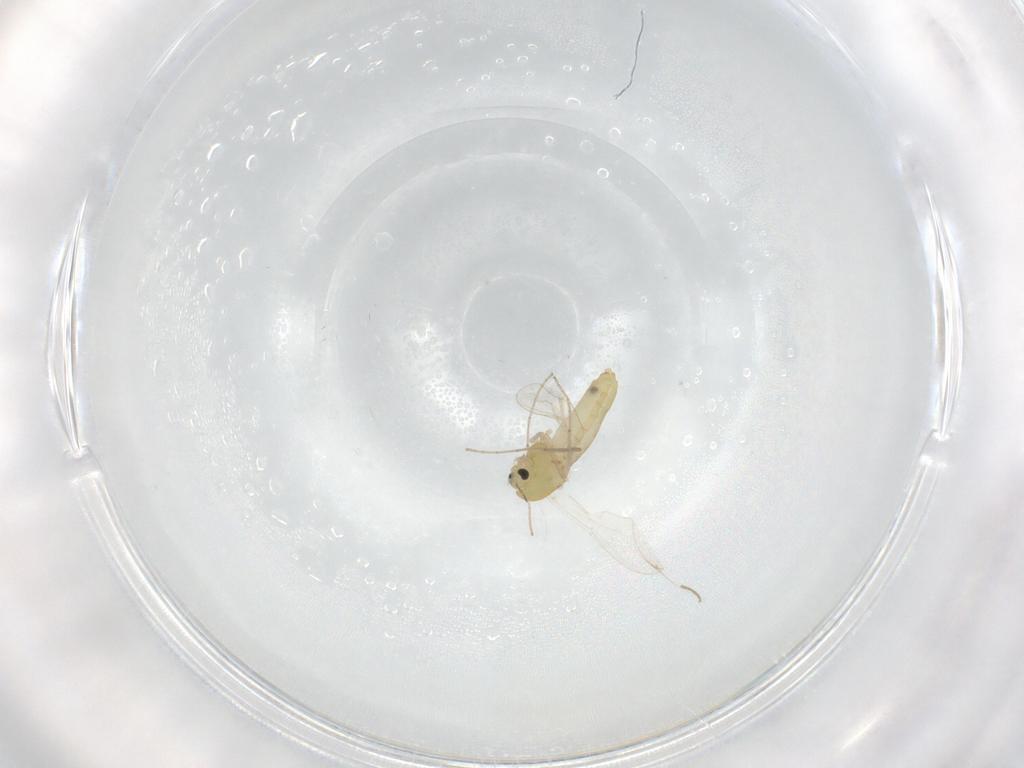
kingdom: Animalia
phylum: Arthropoda
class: Insecta
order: Diptera
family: Chironomidae
